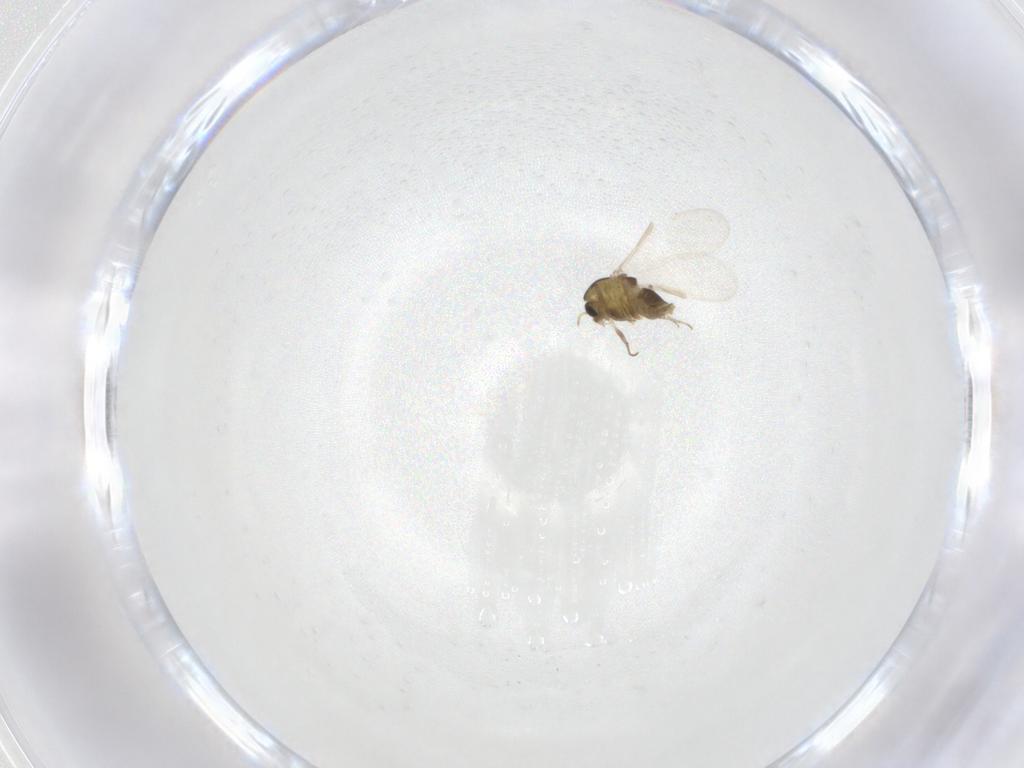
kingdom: Animalia
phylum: Arthropoda
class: Insecta
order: Diptera
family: Chironomidae
